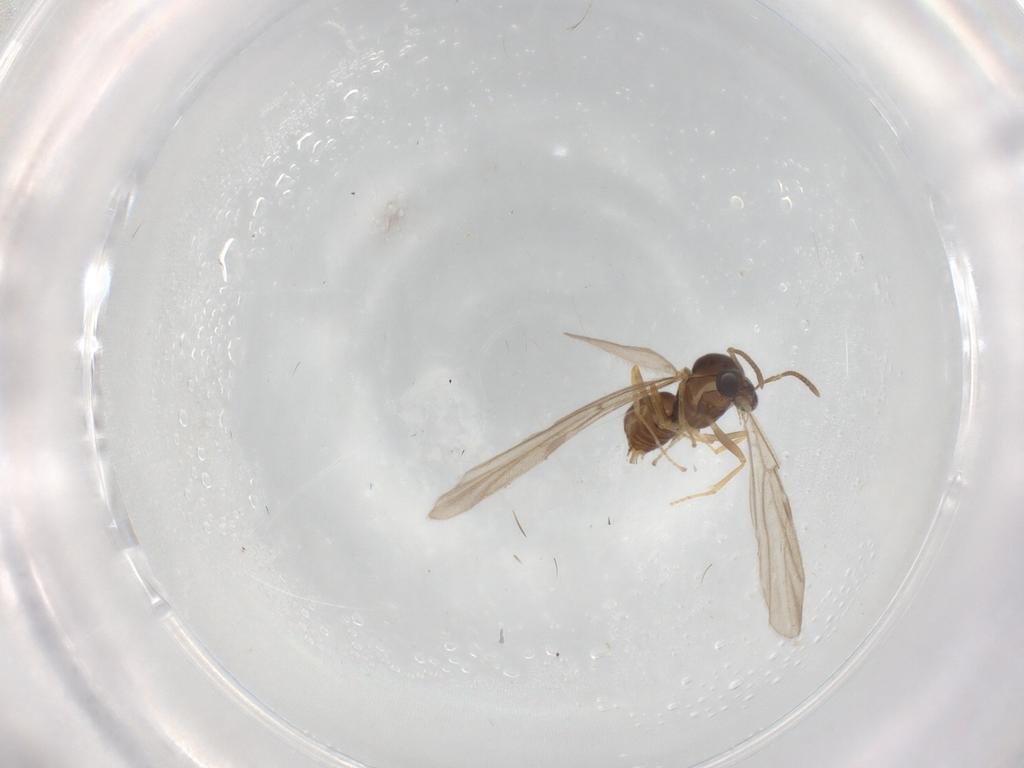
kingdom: Animalia
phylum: Arthropoda
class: Insecta
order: Hymenoptera
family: Formicidae
